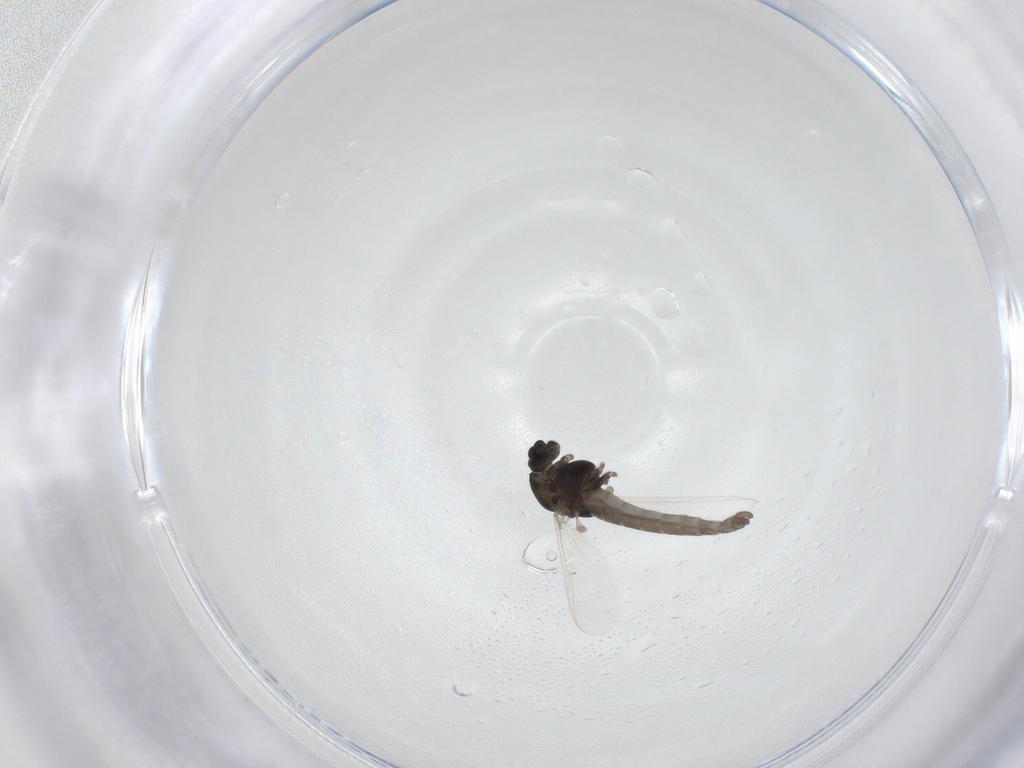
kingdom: Animalia
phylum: Arthropoda
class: Insecta
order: Diptera
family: Chironomidae
